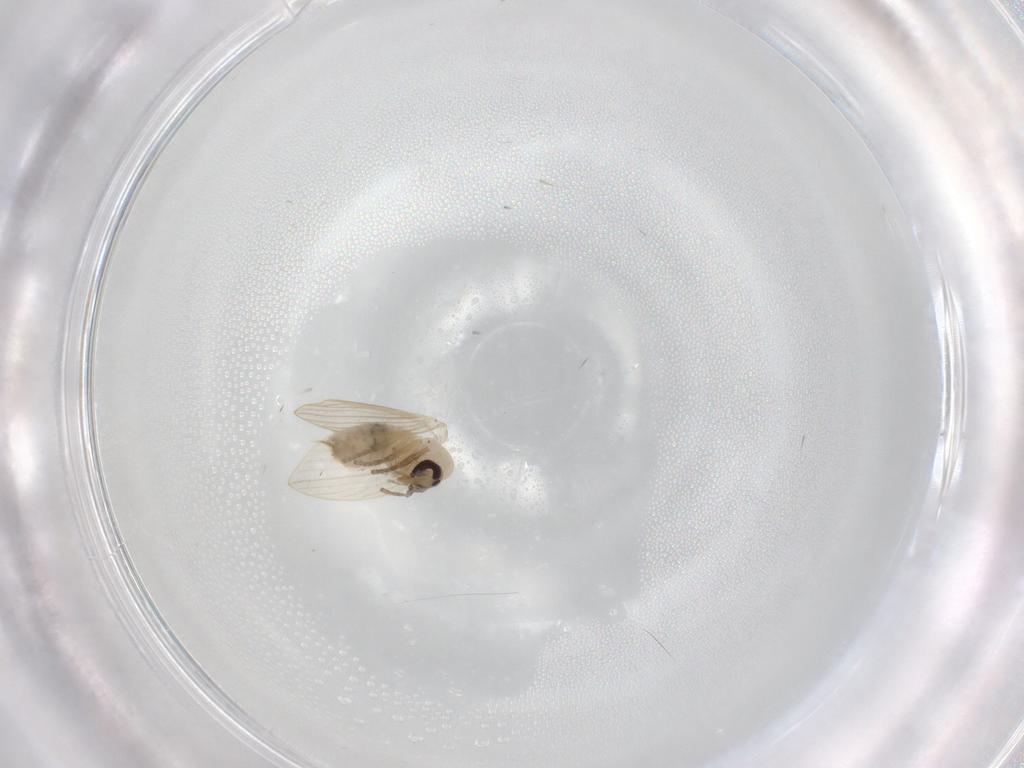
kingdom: Animalia
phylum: Arthropoda
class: Insecta
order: Diptera
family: Psychodidae
